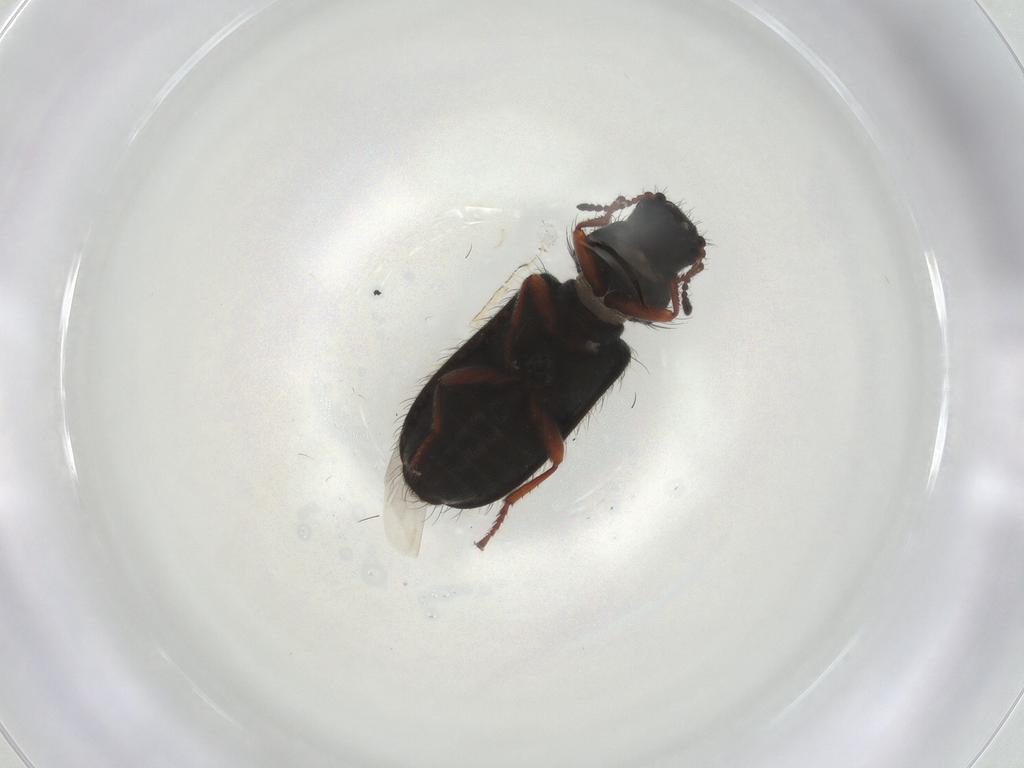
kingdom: Animalia
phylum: Arthropoda
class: Insecta
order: Coleoptera
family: Melyridae
